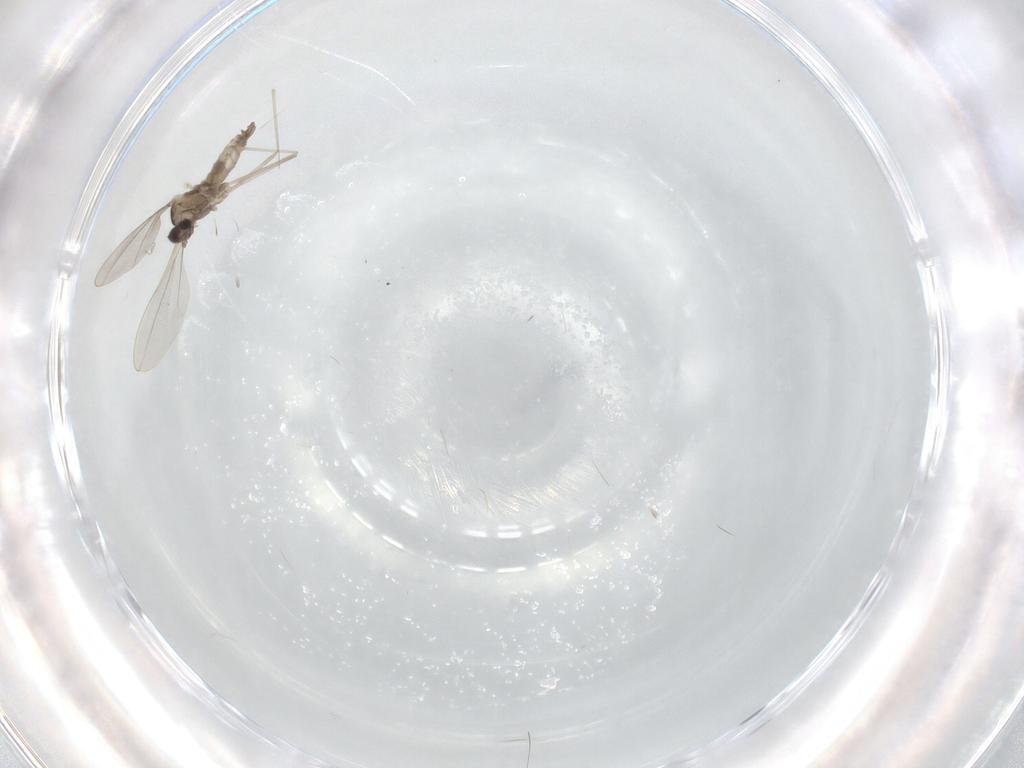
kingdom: Animalia
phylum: Arthropoda
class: Insecta
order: Diptera
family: Cecidomyiidae
